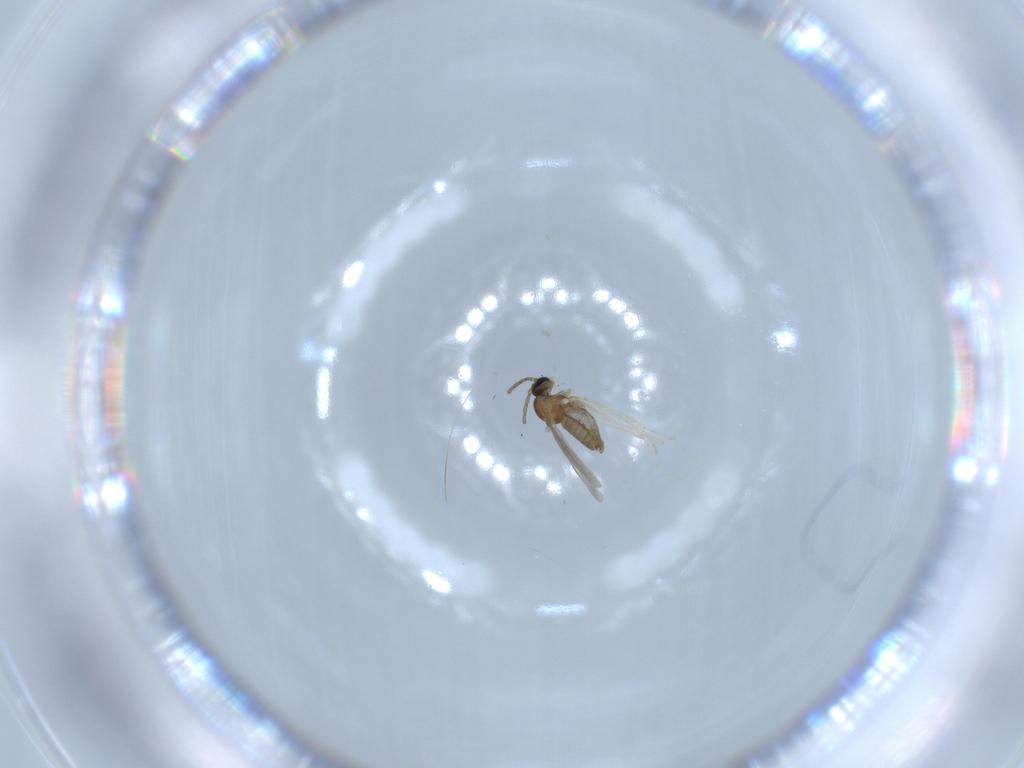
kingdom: Animalia
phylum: Arthropoda
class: Insecta
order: Diptera
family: Cecidomyiidae
